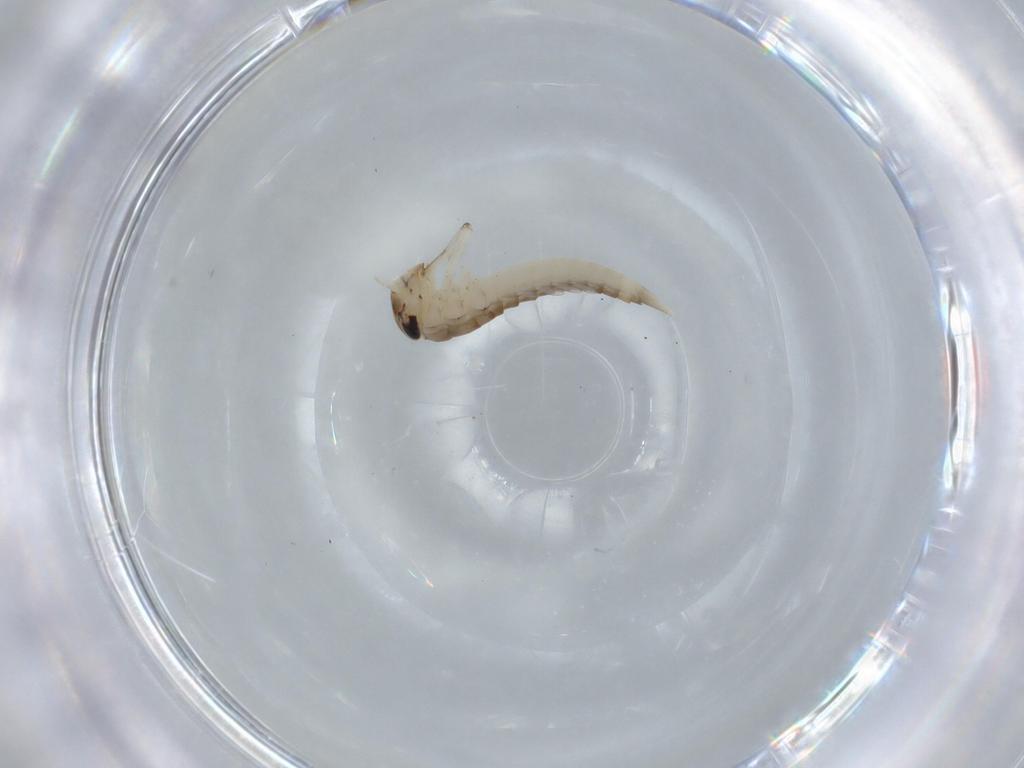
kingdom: Animalia
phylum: Arthropoda
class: Insecta
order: Ephemeroptera
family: Baetidae
